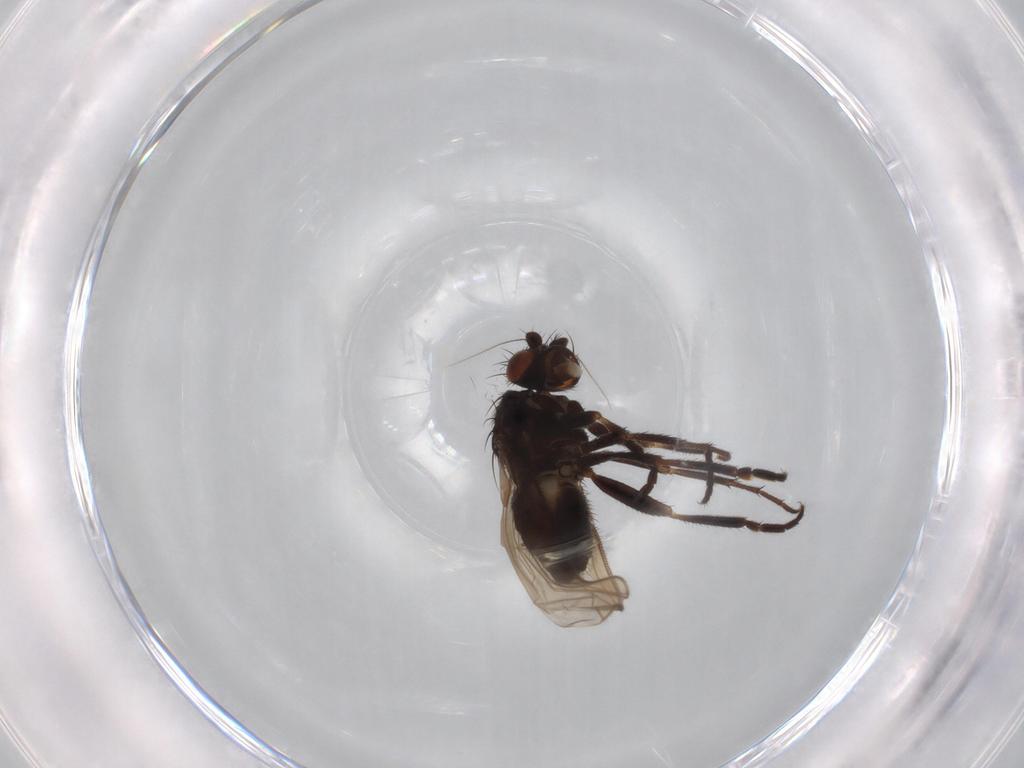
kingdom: Animalia
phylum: Arthropoda
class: Insecta
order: Diptera
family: Sphaeroceridae
